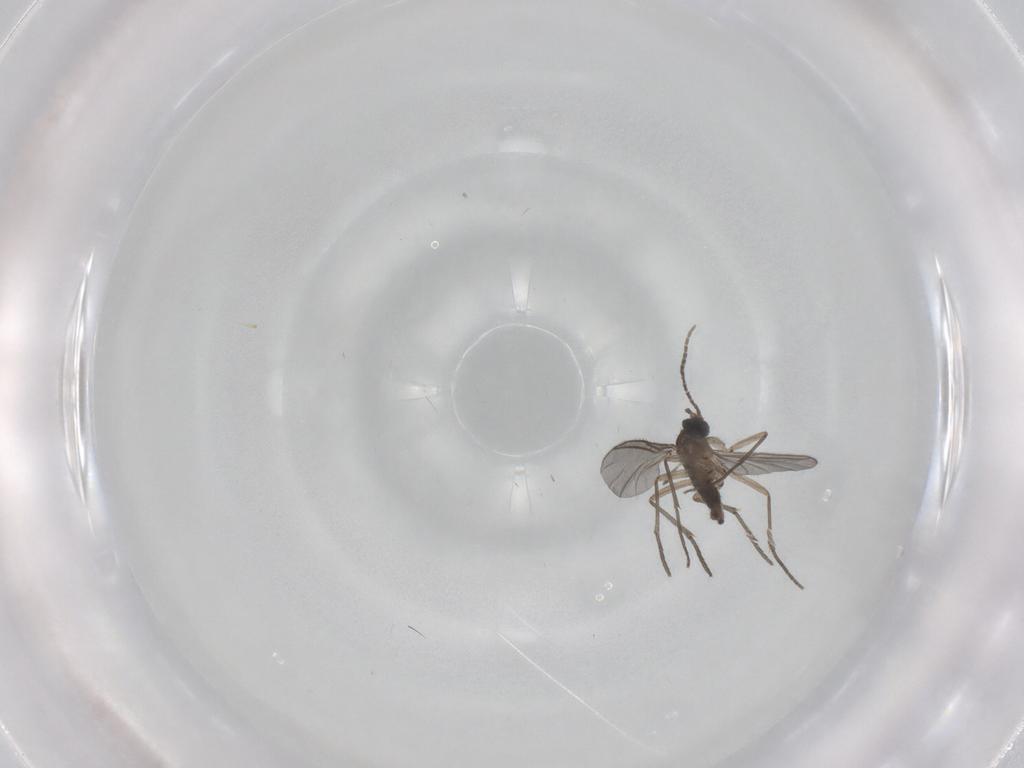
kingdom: Animalia
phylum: Arthropoda
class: Insecta
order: Diptera
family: Sciaridae
